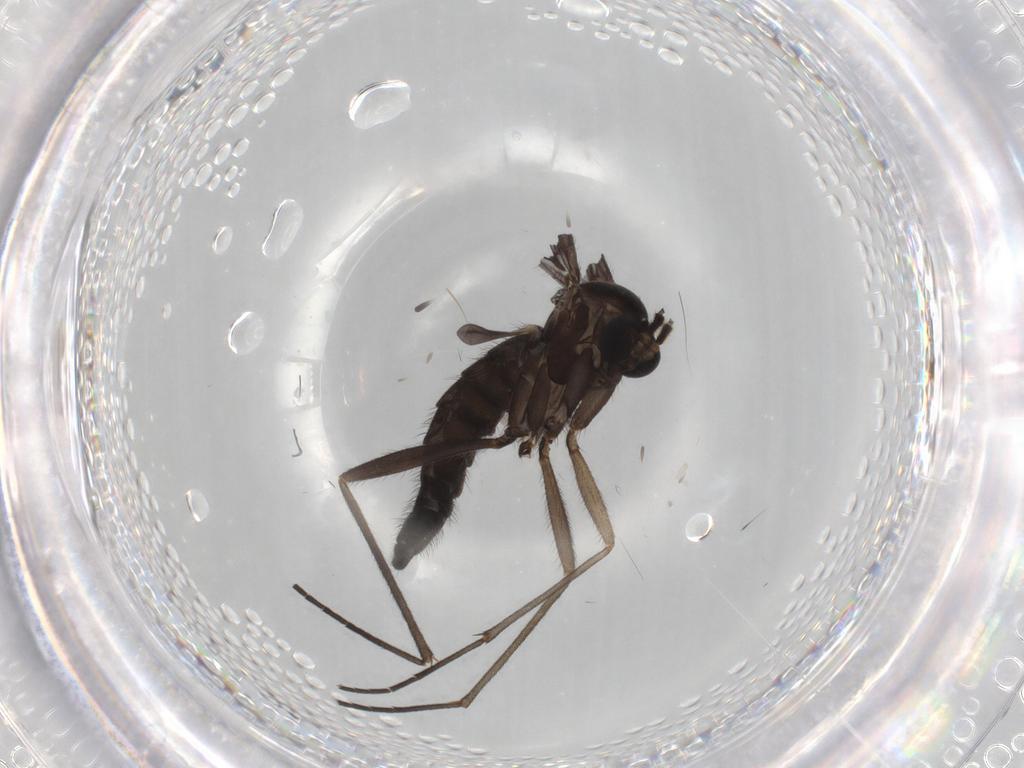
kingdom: Animalia
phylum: Arthropoda
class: Insecta
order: Diptera
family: Sciaridae
